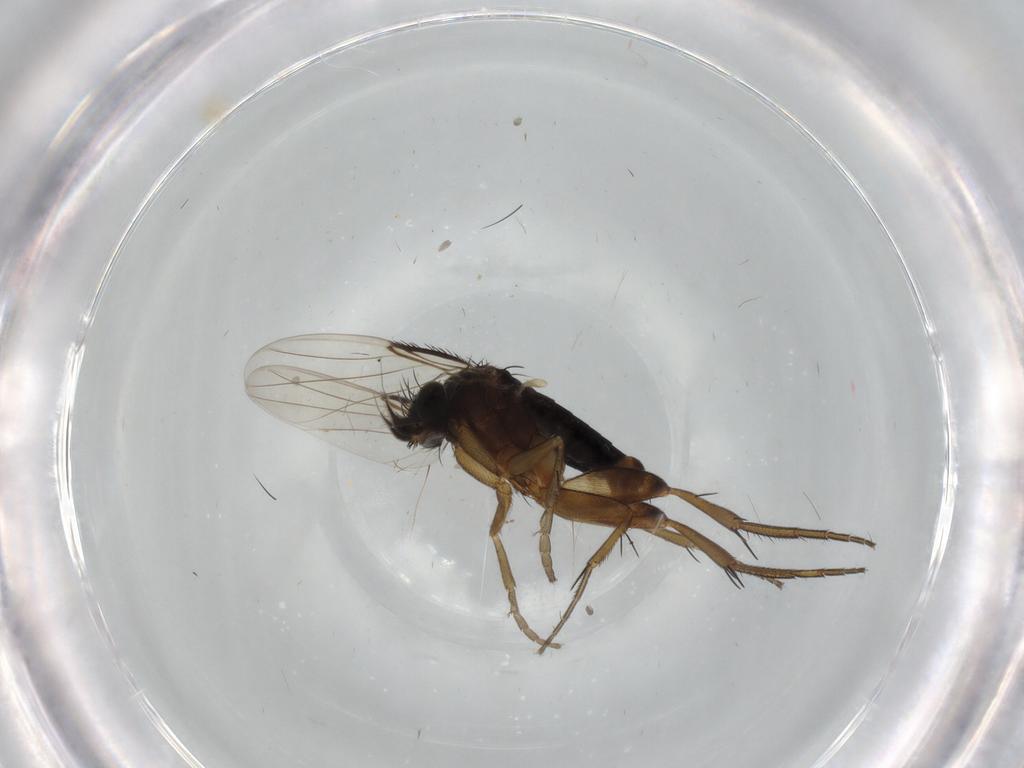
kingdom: Animalia
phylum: Arthropoda
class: Insecta
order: Diptera
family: Phoridae
